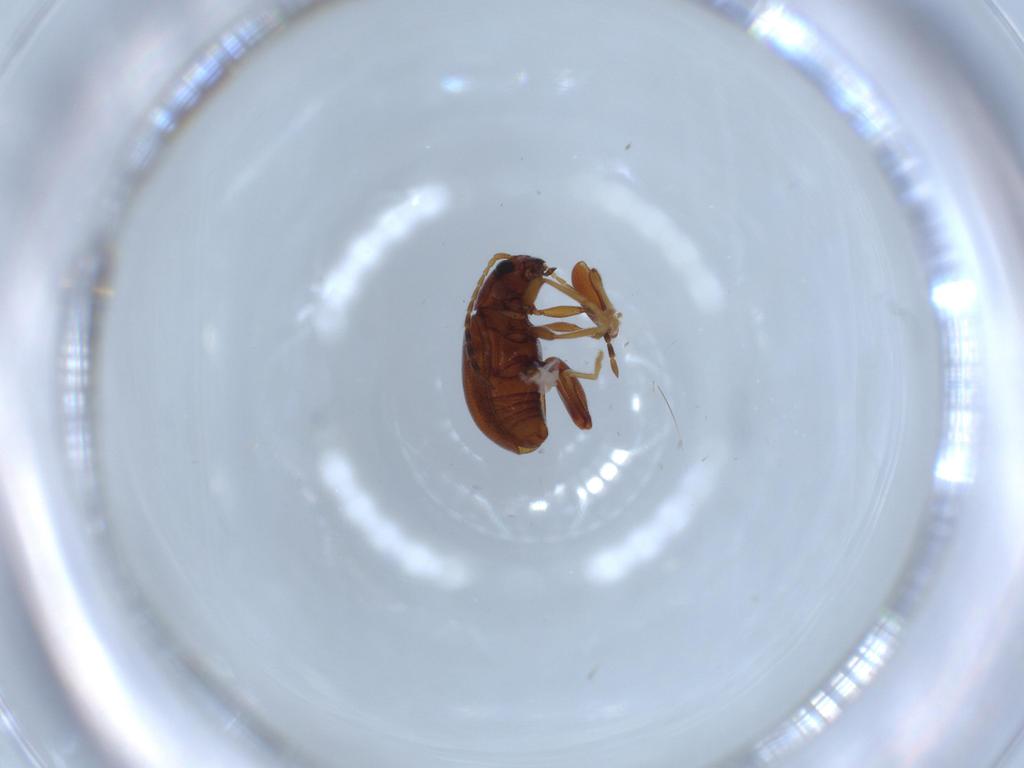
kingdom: Animalia
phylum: Arthropoda
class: Insecta
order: Coleoptera
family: Chrysomelidae
